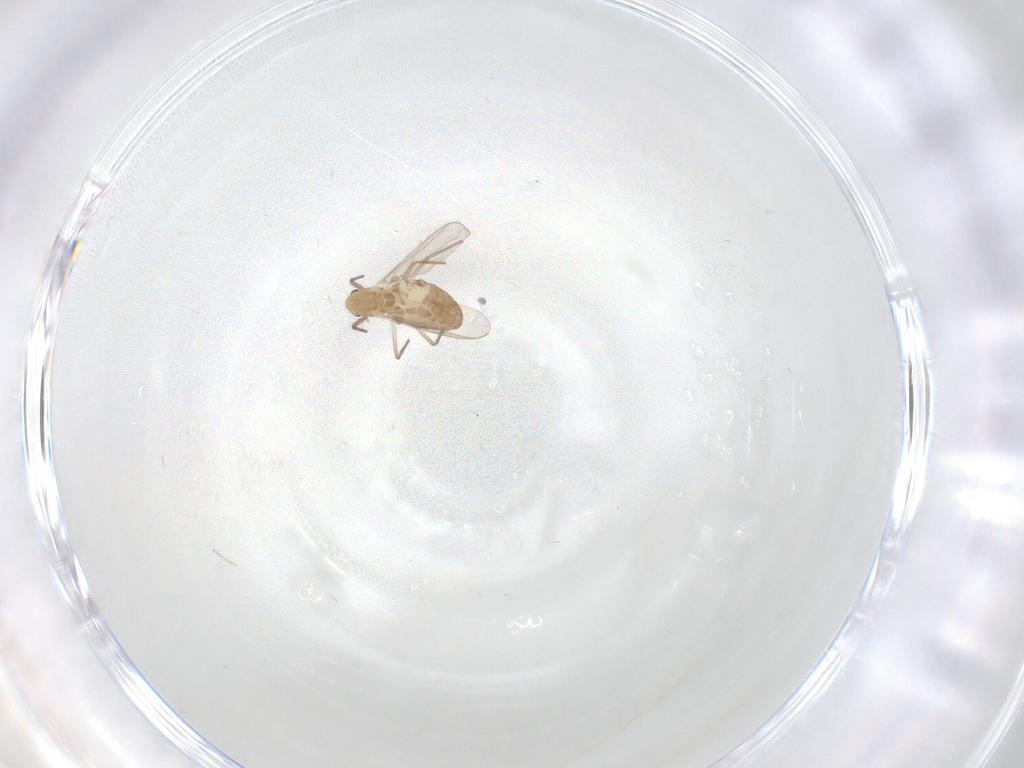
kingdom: Animalia
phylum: Arthropoda
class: Insecta
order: Diptera
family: Chironomidae
